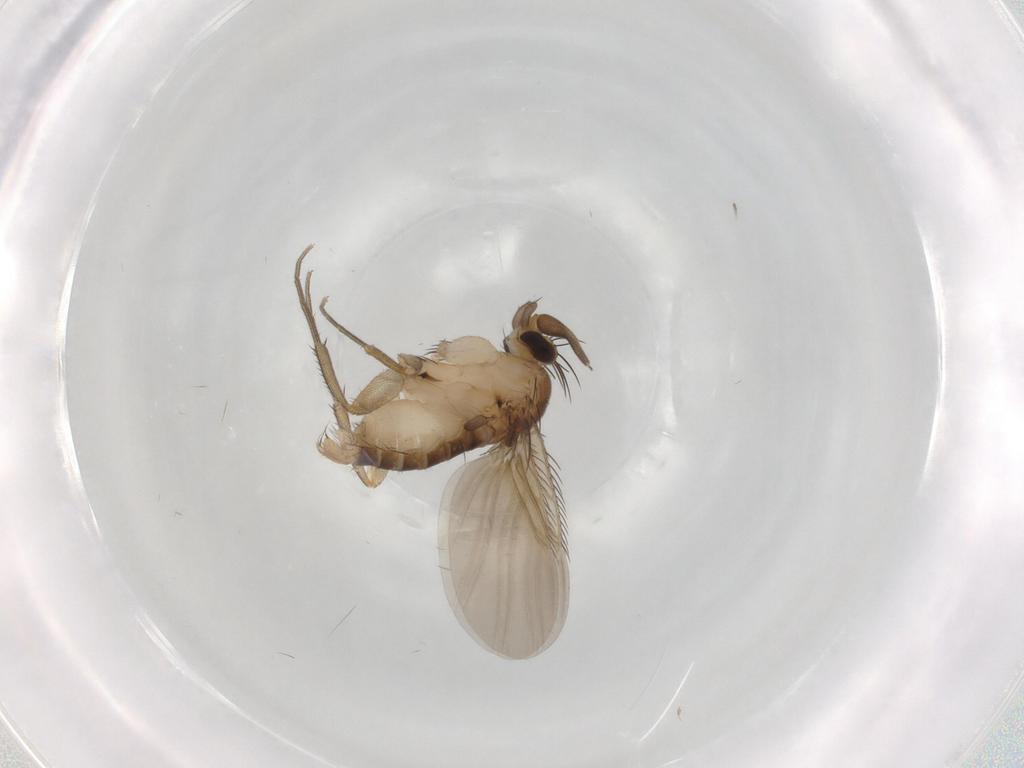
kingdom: Animalia
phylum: Arthropoda
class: Insecta
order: Diptera
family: Phoridae
